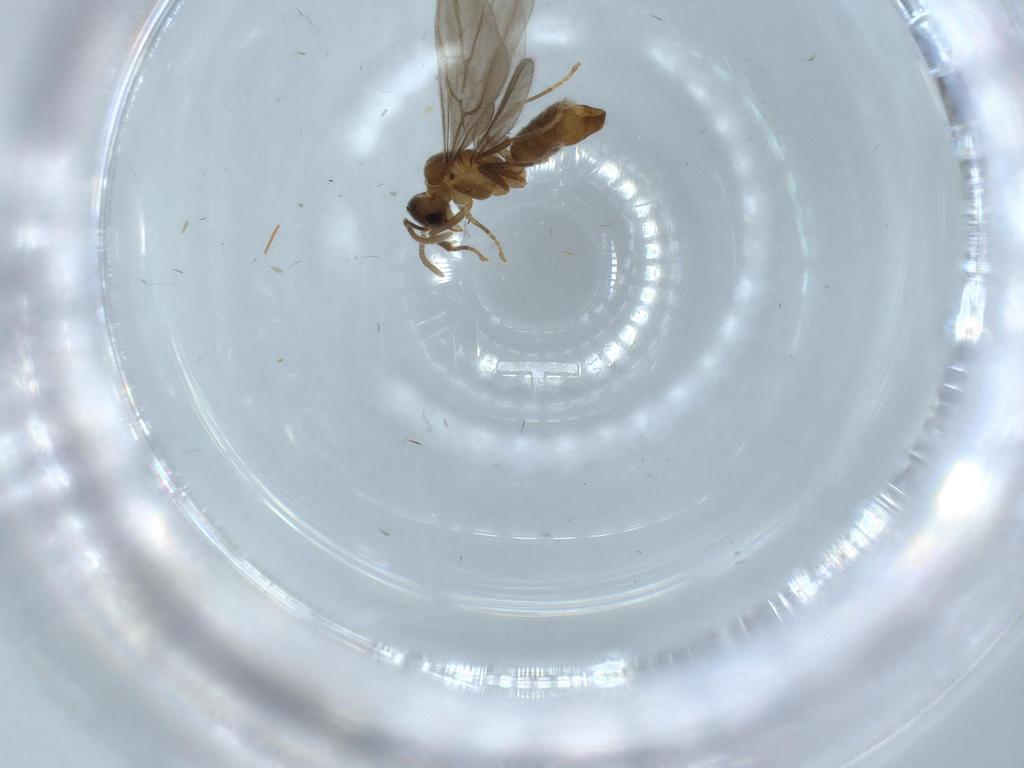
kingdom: Animalia
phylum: Arthropoda
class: Insecta
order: Hymenoptera
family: Formicidae
